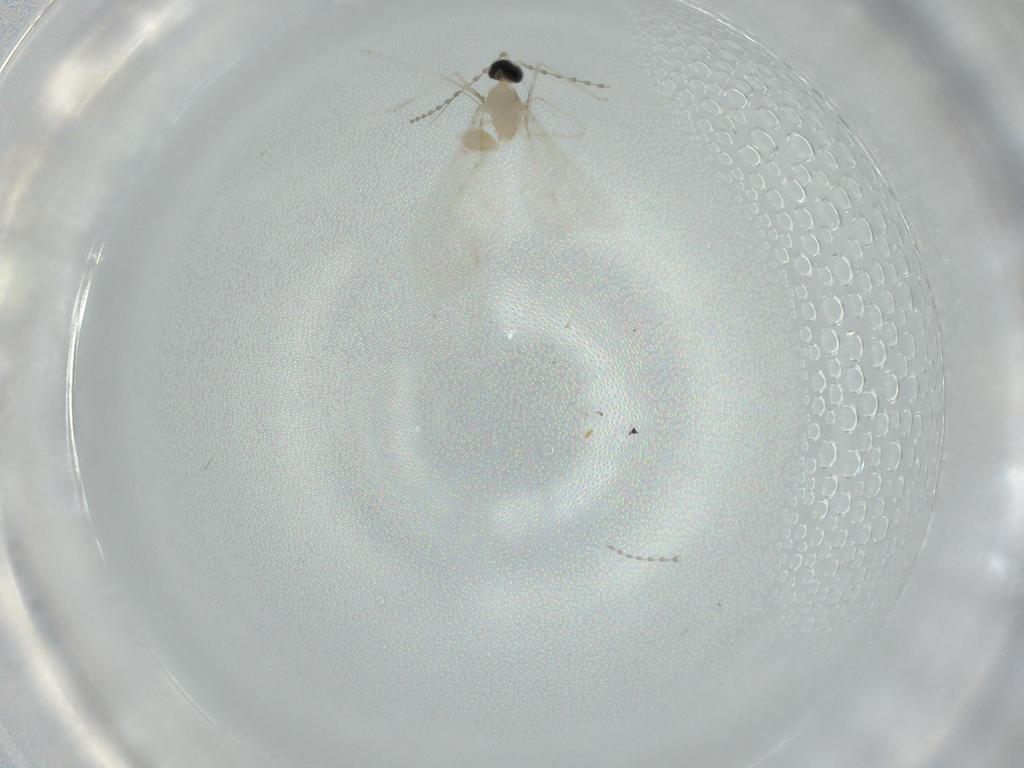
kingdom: Animalia
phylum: Arthropoda
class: Insecta
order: Diptera
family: Cecidomyiidae
